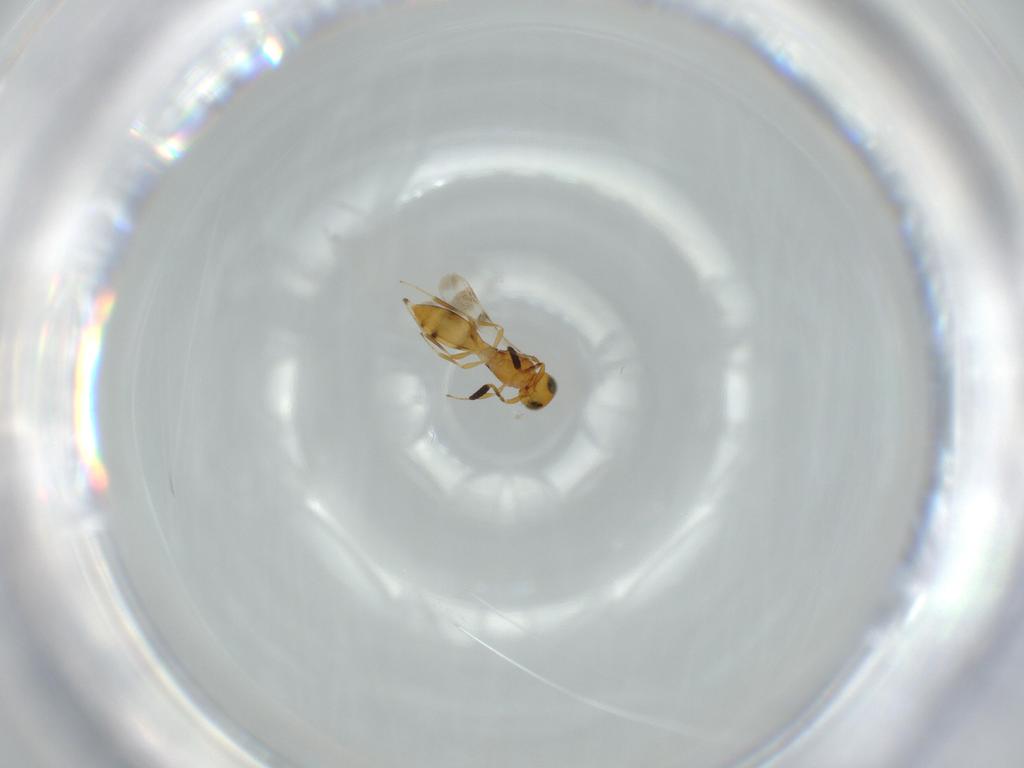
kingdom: Animalia
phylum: Arthropoda
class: Insecta
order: Hymenoptera
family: Scelionidae
